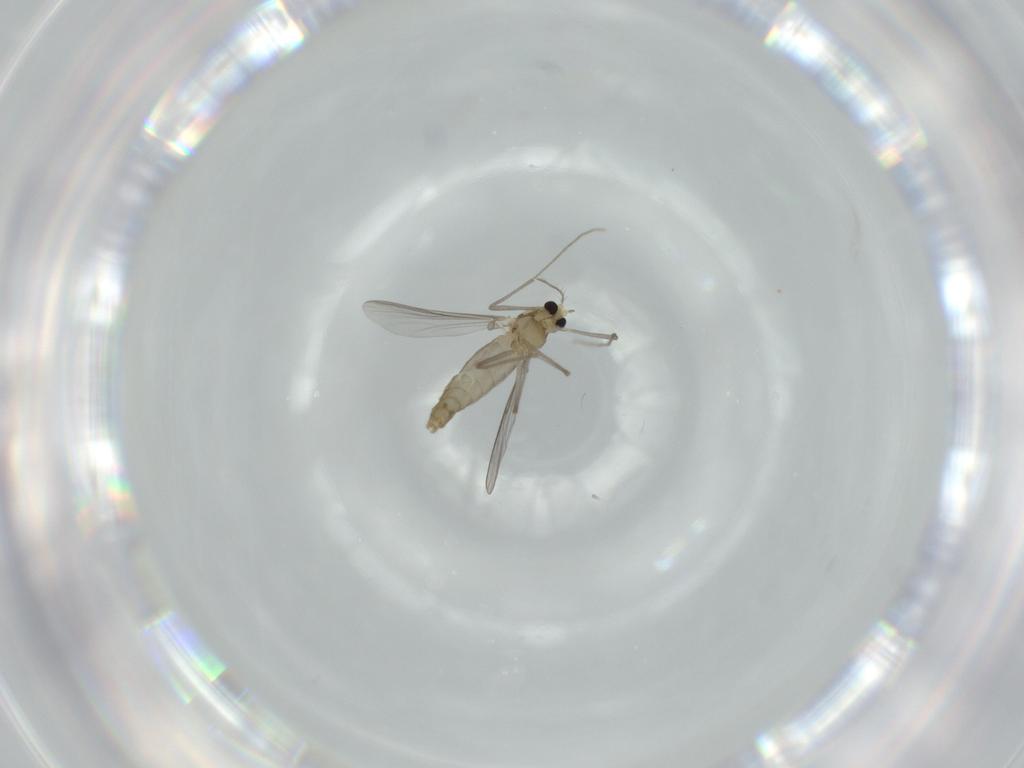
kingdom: Animalia
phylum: Arthropoda
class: Insecta
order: Diptera
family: Chironomidae
